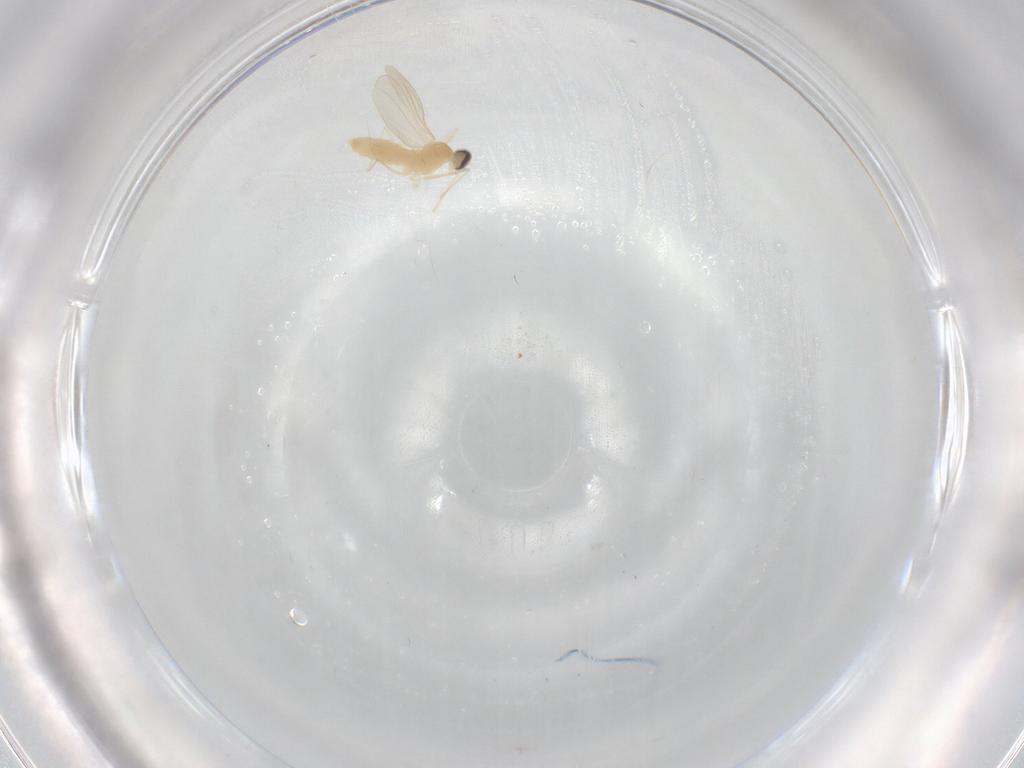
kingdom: Animalia
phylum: Arthropoda
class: Insecta
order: Diptera
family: Cecidomyiidae
